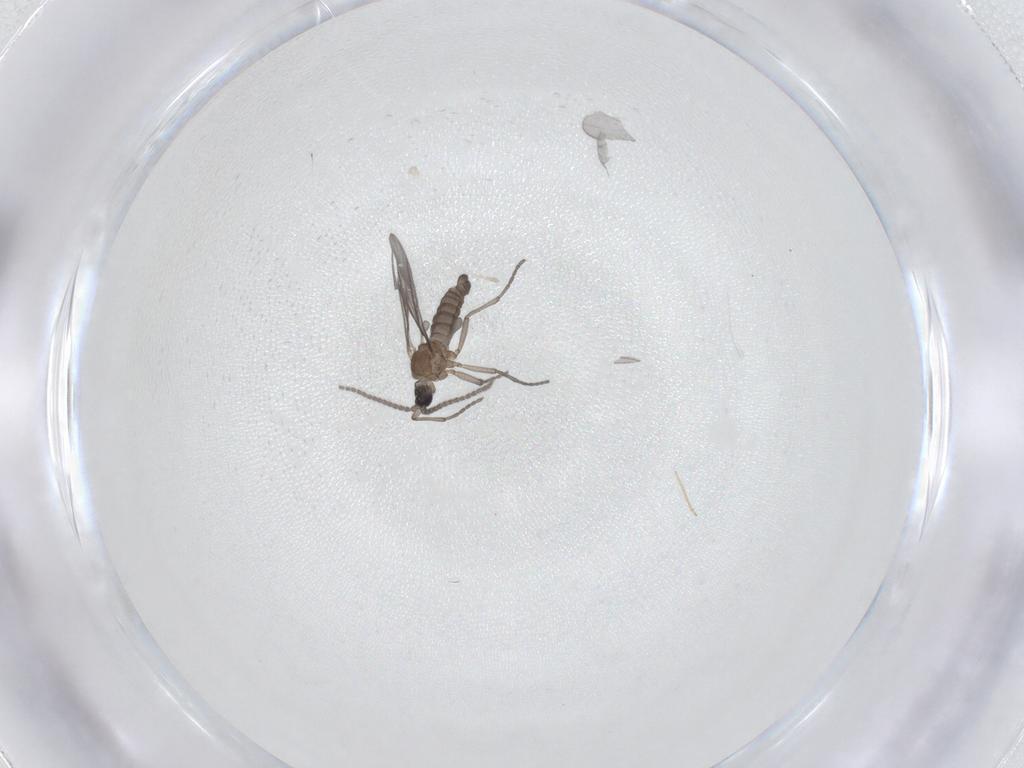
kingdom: Animalia
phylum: Arthropoda
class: Insecta
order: Diptera
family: Sciaridae
